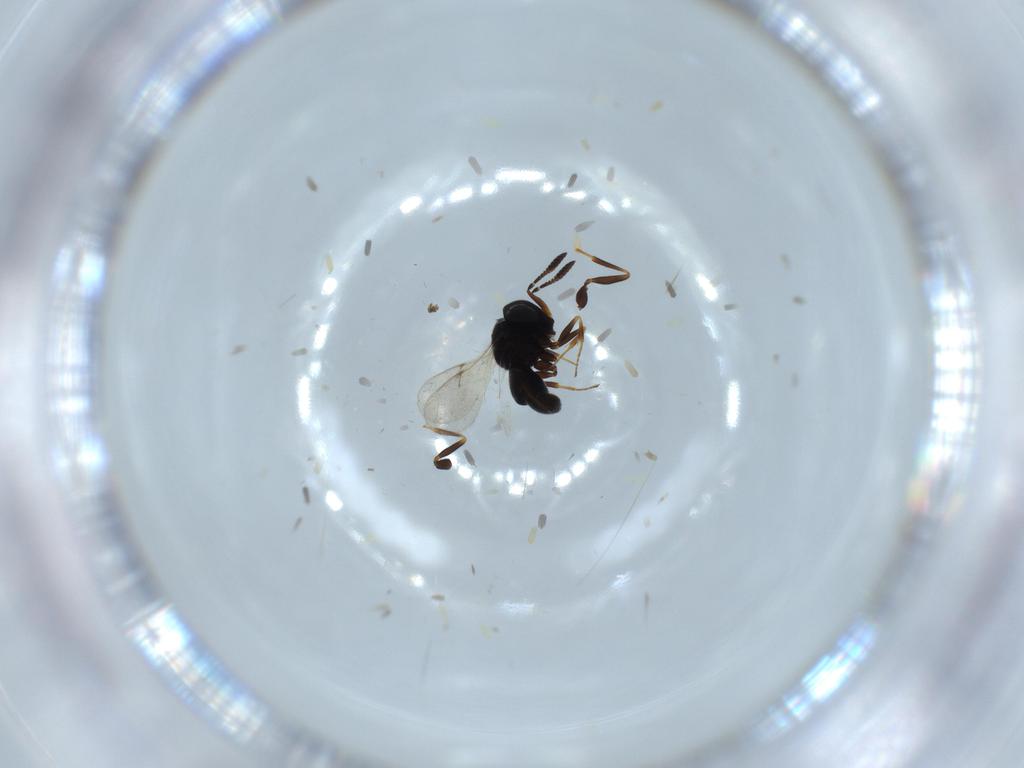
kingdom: Animalia
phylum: Arthropoda
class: Insecta
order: Hymenoptera
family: Scelionidae
